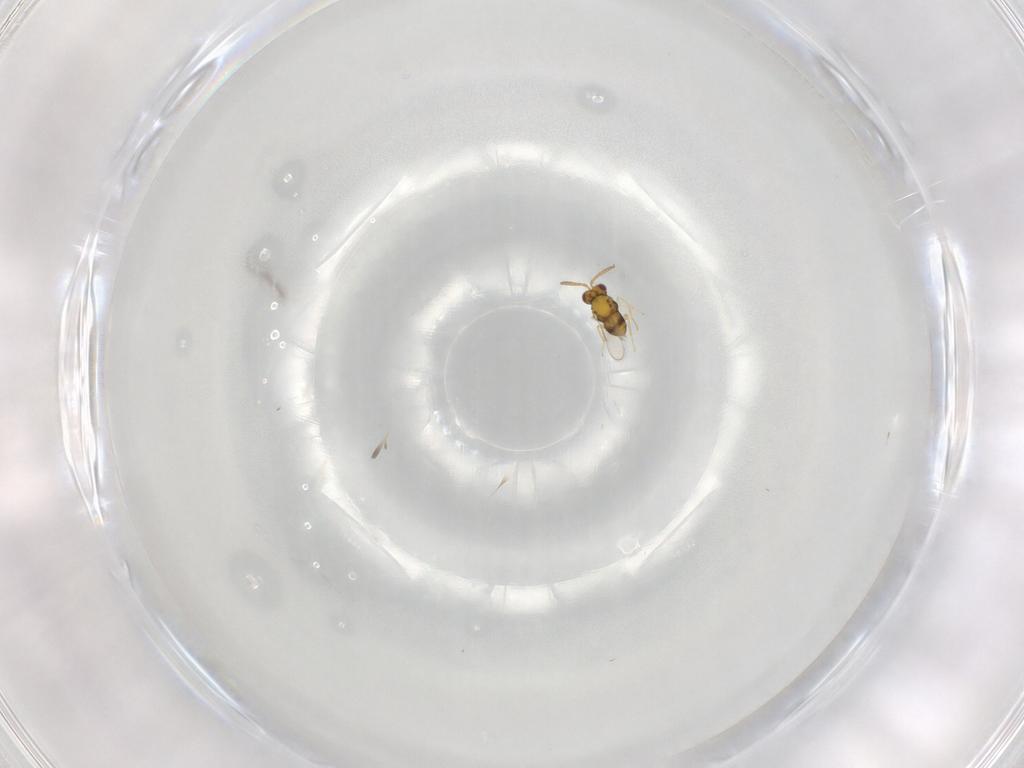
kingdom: Animalia
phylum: Arthropoda
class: Insecta
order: Hymenoptera
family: Aphelinidae
